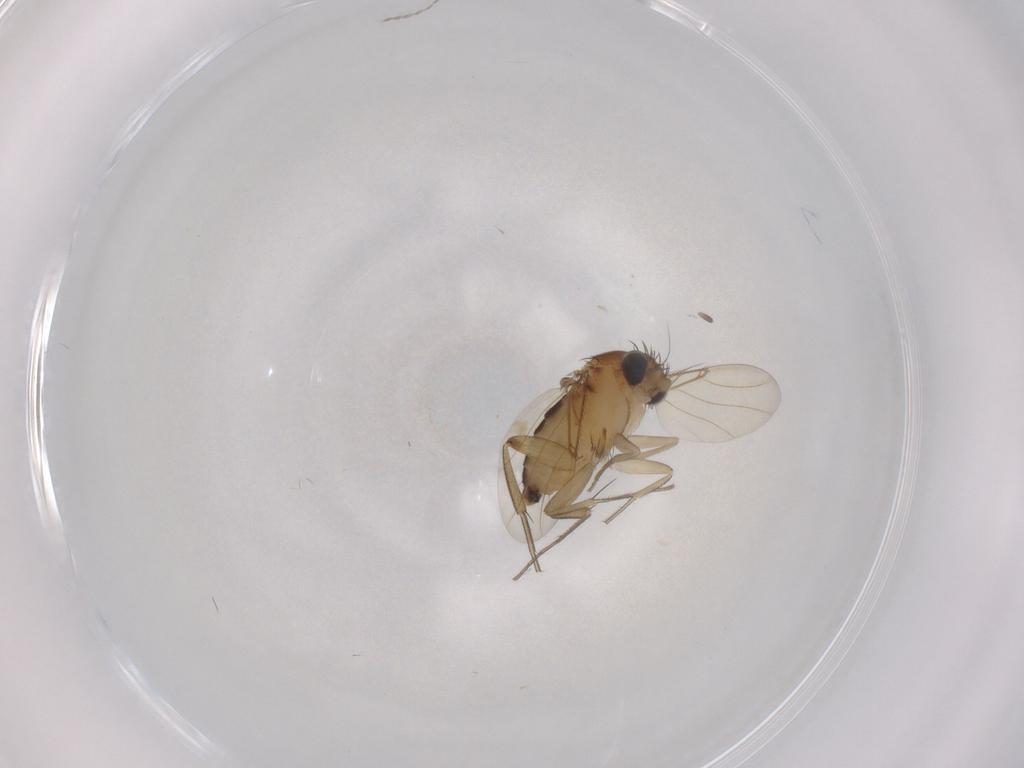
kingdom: Animalia
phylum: Arthropoda
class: Insecta
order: Diptera
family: Phoridae
